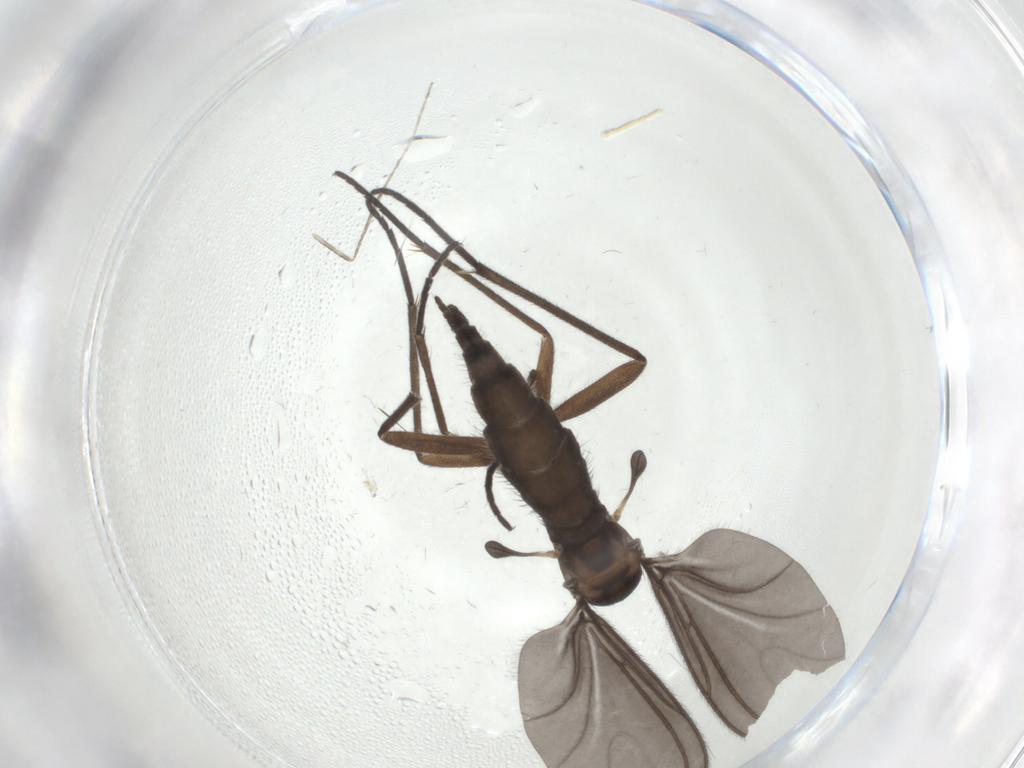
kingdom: Animalia
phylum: Arthropoda
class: Insecta
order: Diptera
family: Sciaridae
